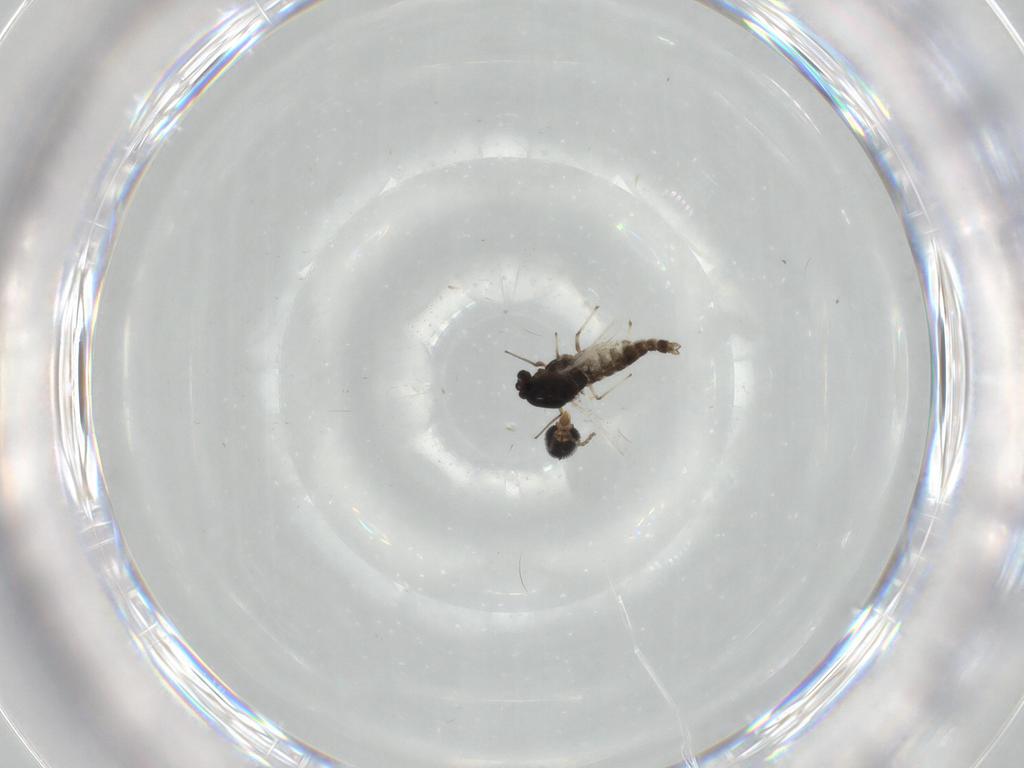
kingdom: Animalia
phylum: Arthropoda
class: Insecta
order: Diptera
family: Chironomidae
